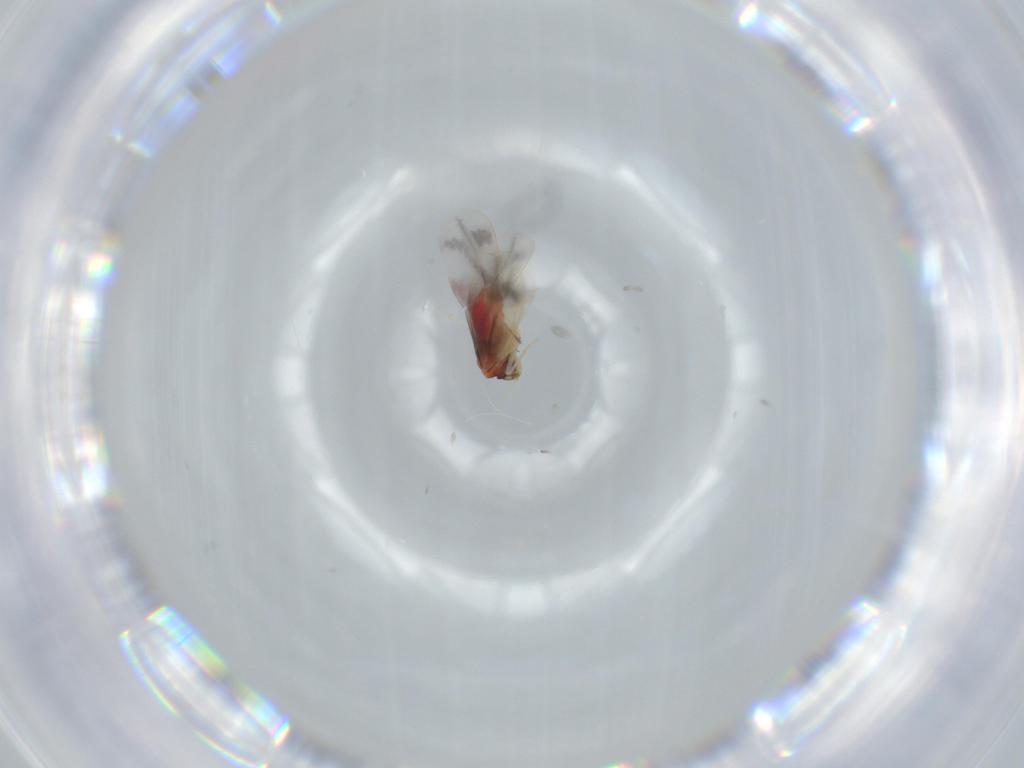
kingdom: Animalia
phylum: Arthropoda
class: Insecta
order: Hemiptera
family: Aleyrodidae
